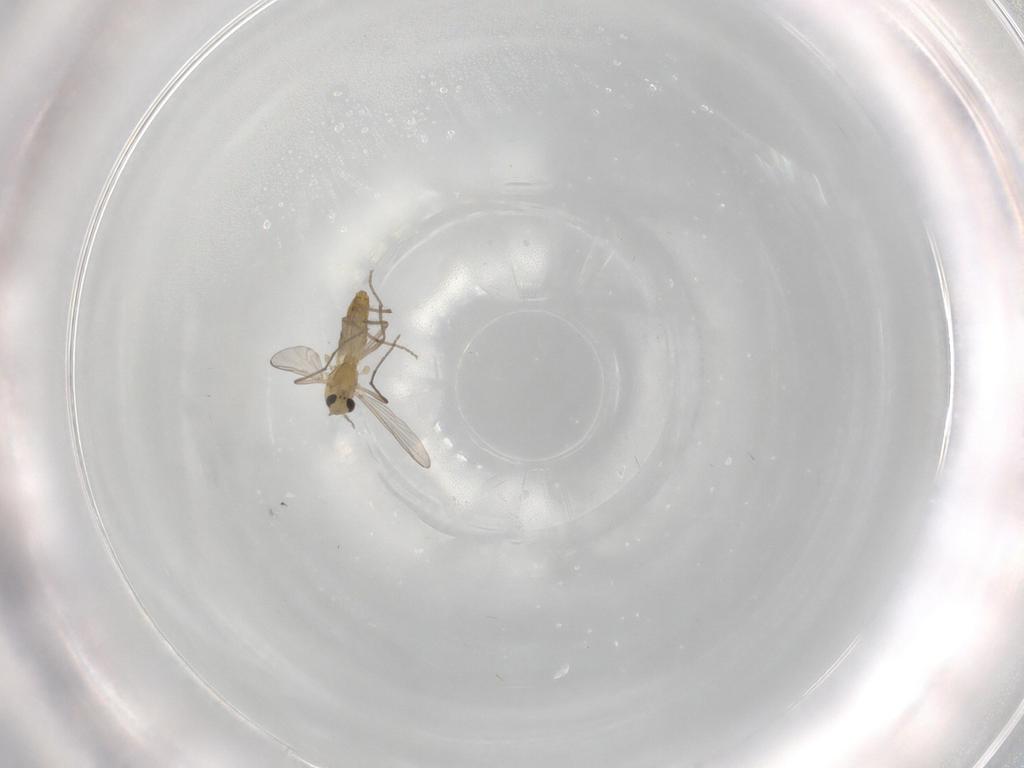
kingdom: Animalia
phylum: Arthropoda
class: Insecta
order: Diptera
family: Chironomidae
